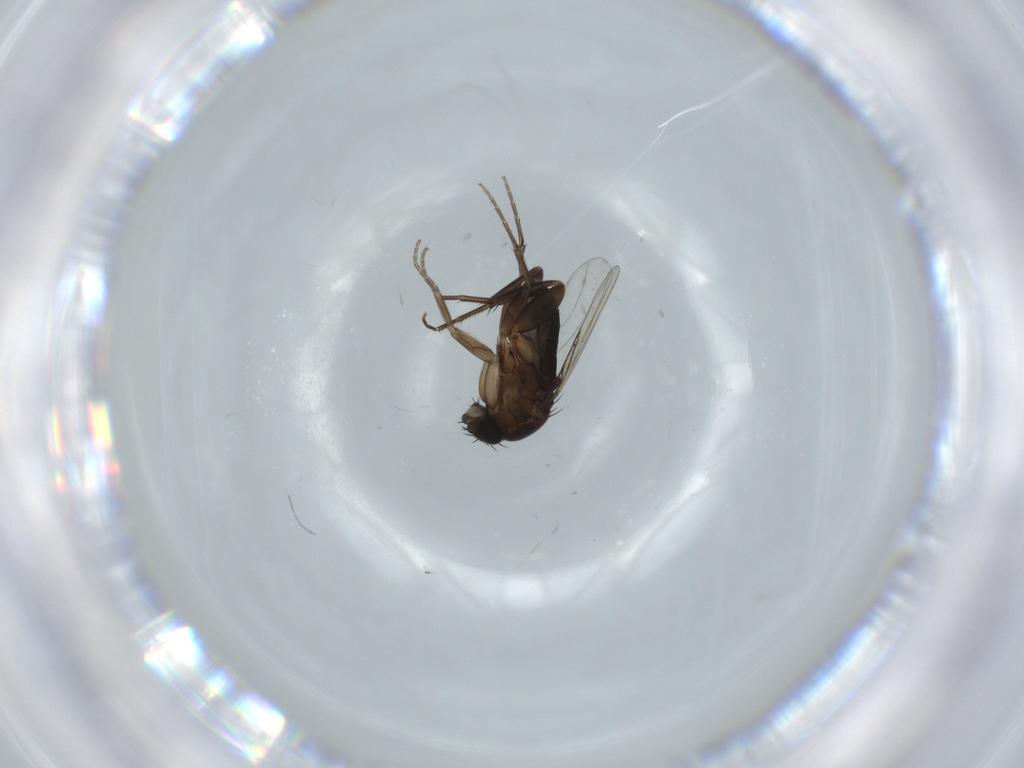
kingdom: Animalia
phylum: Arthropoda
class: Insecta
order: Diptera
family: Phoridae
